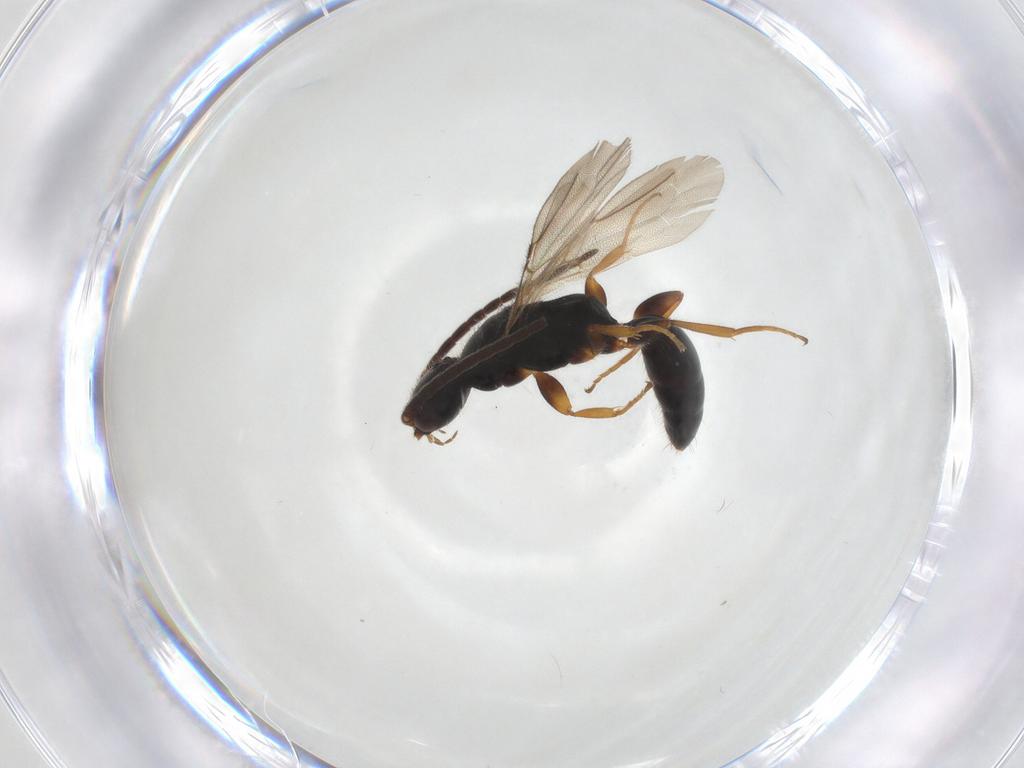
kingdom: Animalia
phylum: Arthropoda
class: Insecta
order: Hymenoptera
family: Bethylidae
